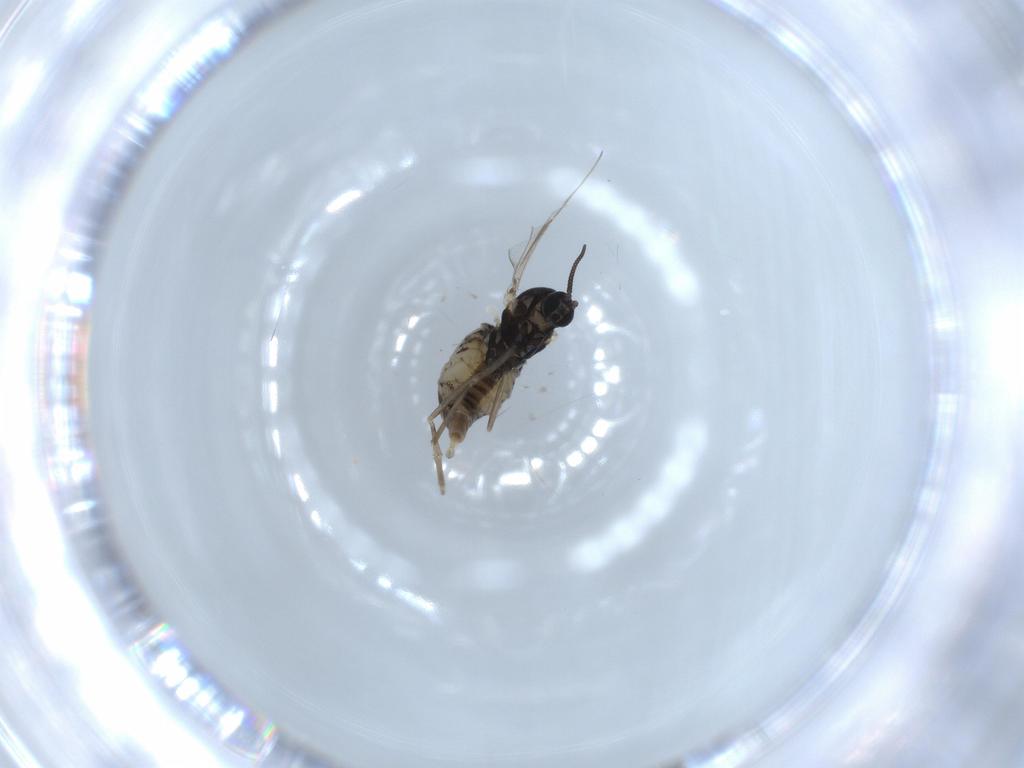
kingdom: Animalia
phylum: Arthropoda
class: Insecta
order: Diptera
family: Cecidomyiidae
